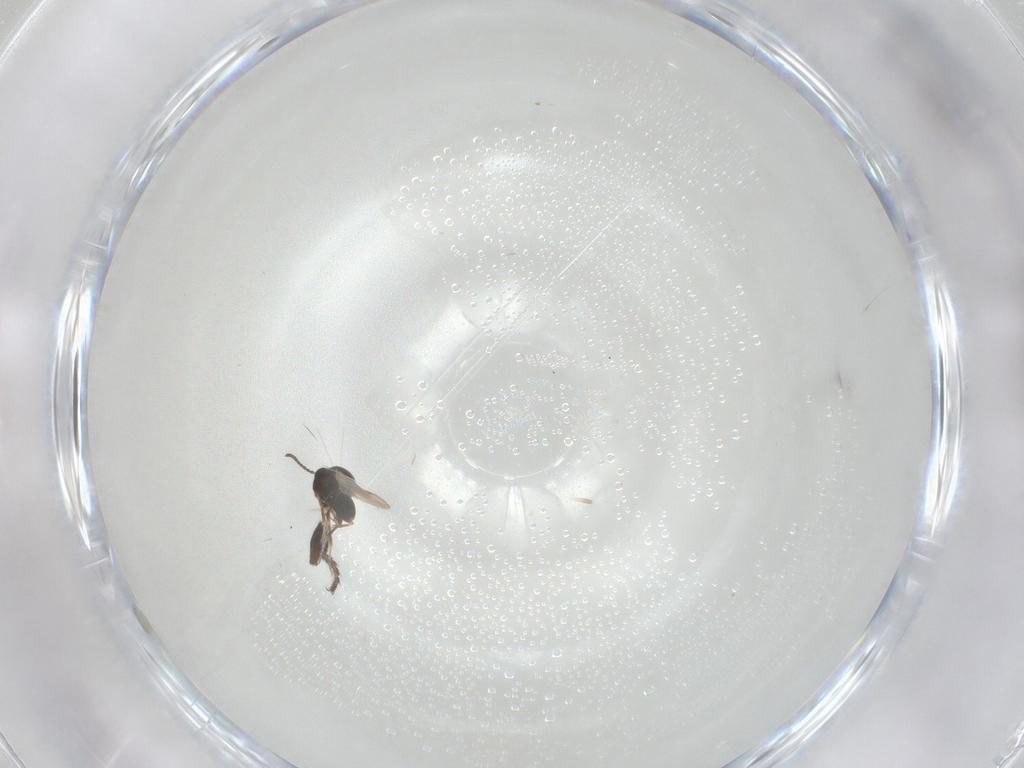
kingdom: Animalia
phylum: Arthropoda
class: Insecta
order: Diptera
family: Milichiidae
